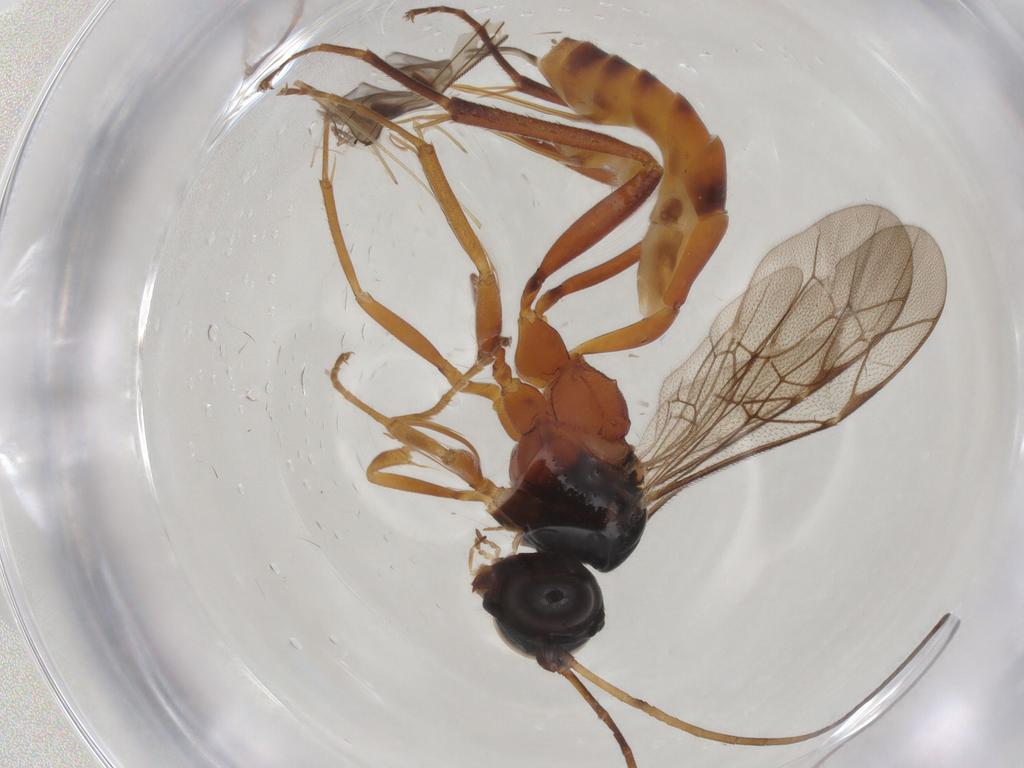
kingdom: Animalia
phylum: Arthropoda
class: Insecta
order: Hymenoptera
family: Ichneumonidae
